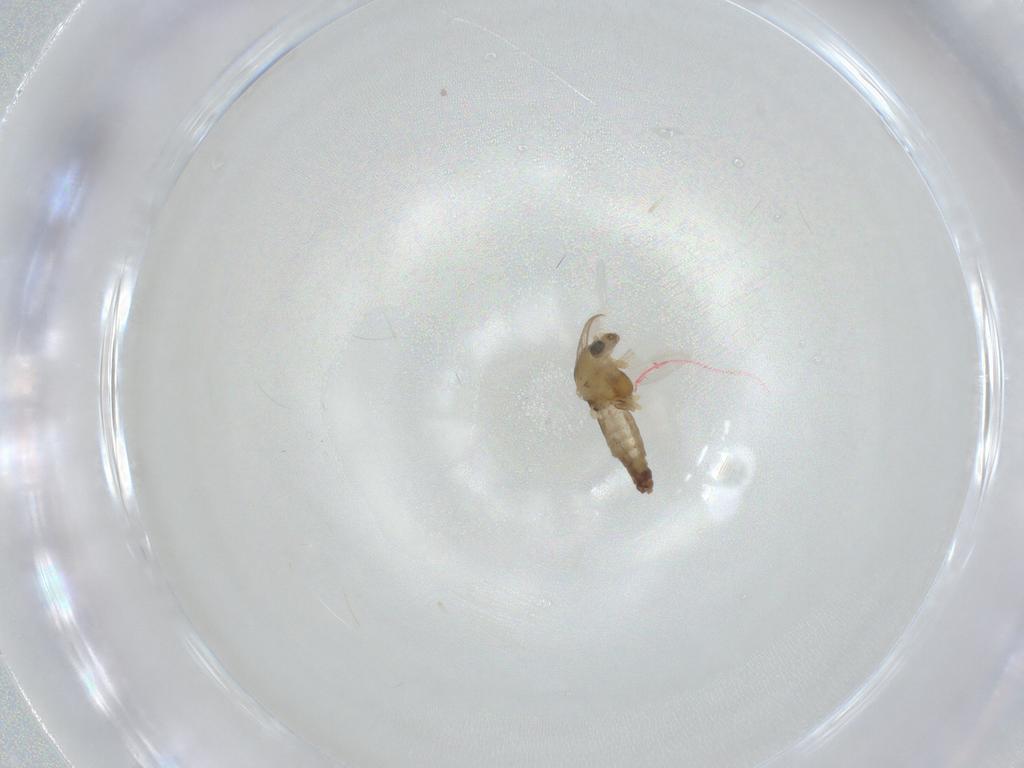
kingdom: Animalia
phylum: Arthropoda
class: Insecta
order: Diptera
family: Chironomidae
